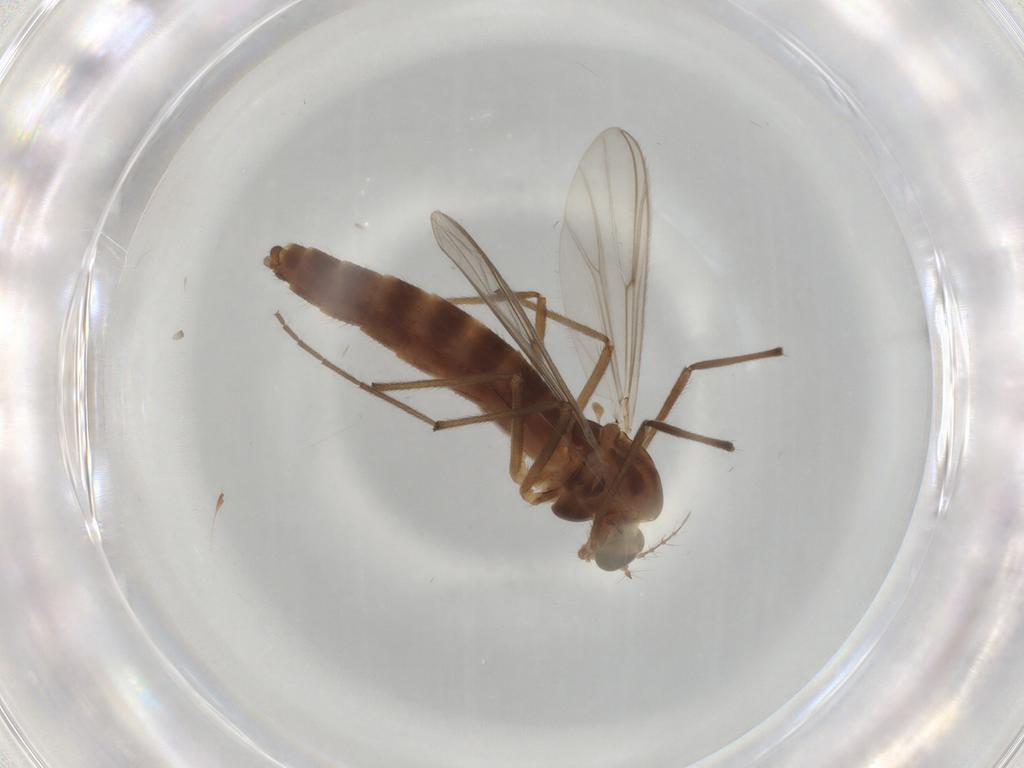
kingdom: Animalia
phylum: Arthropoda
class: Insecta
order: Diptera
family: Chironomidae
